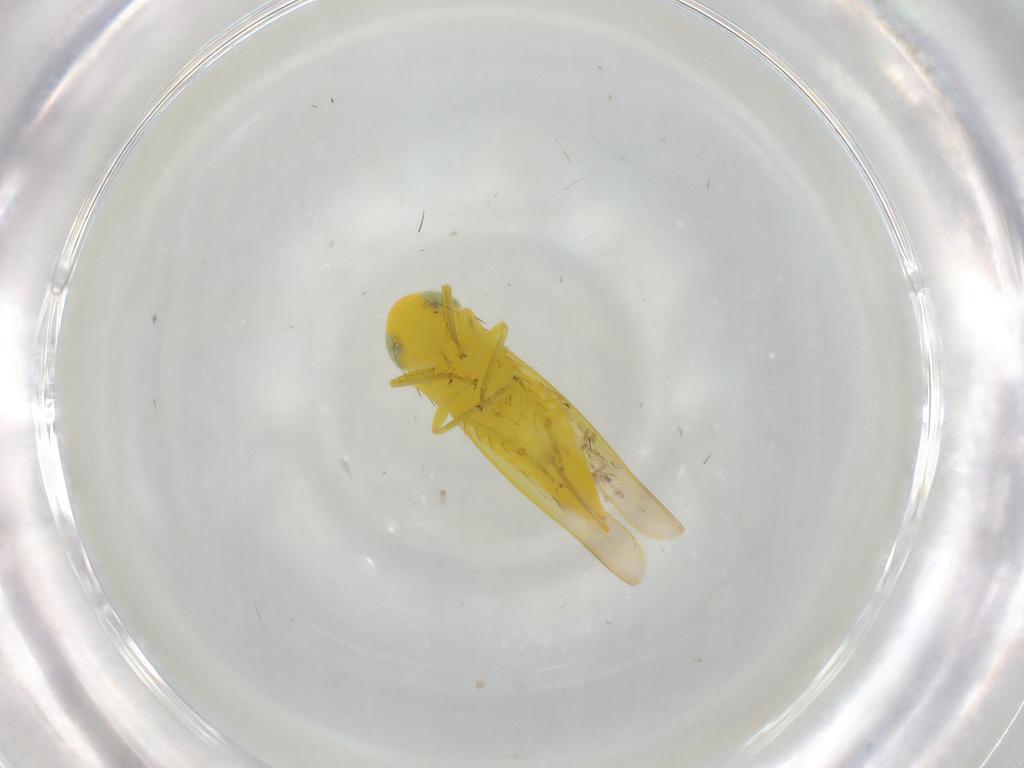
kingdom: Animalia
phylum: Arthropoda
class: Insecta
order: Hemiptera
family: Cicadellidae
